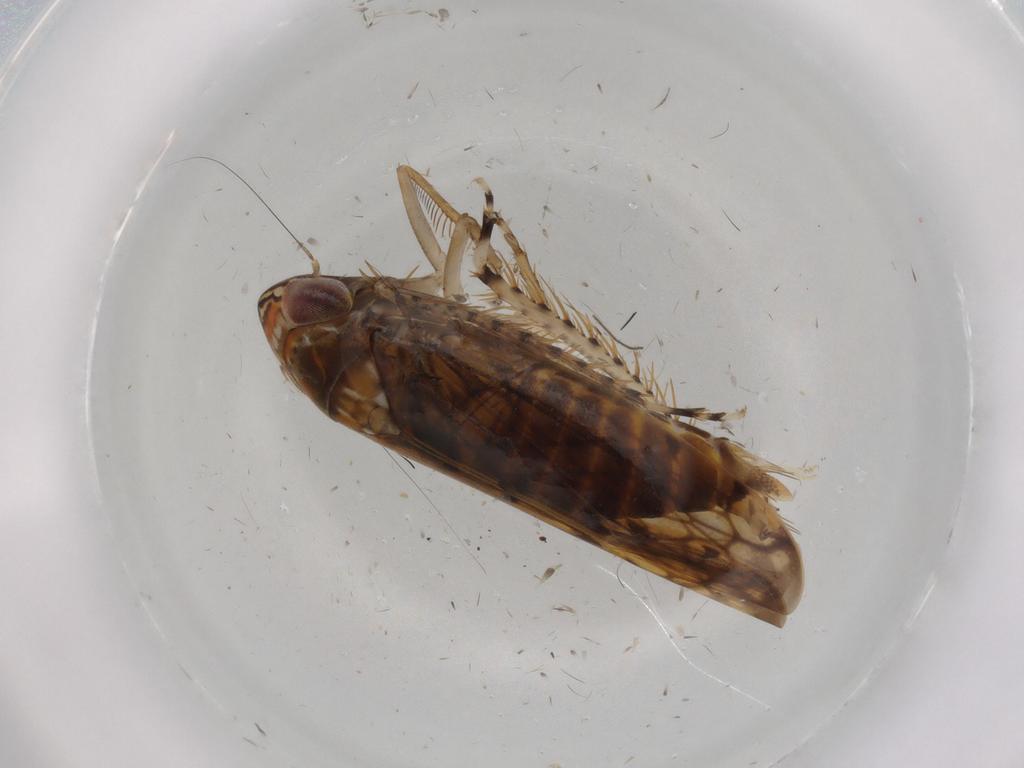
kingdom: Animalia
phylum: Arthropoda
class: Insecta
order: Hemiptera
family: Cicadellidae
